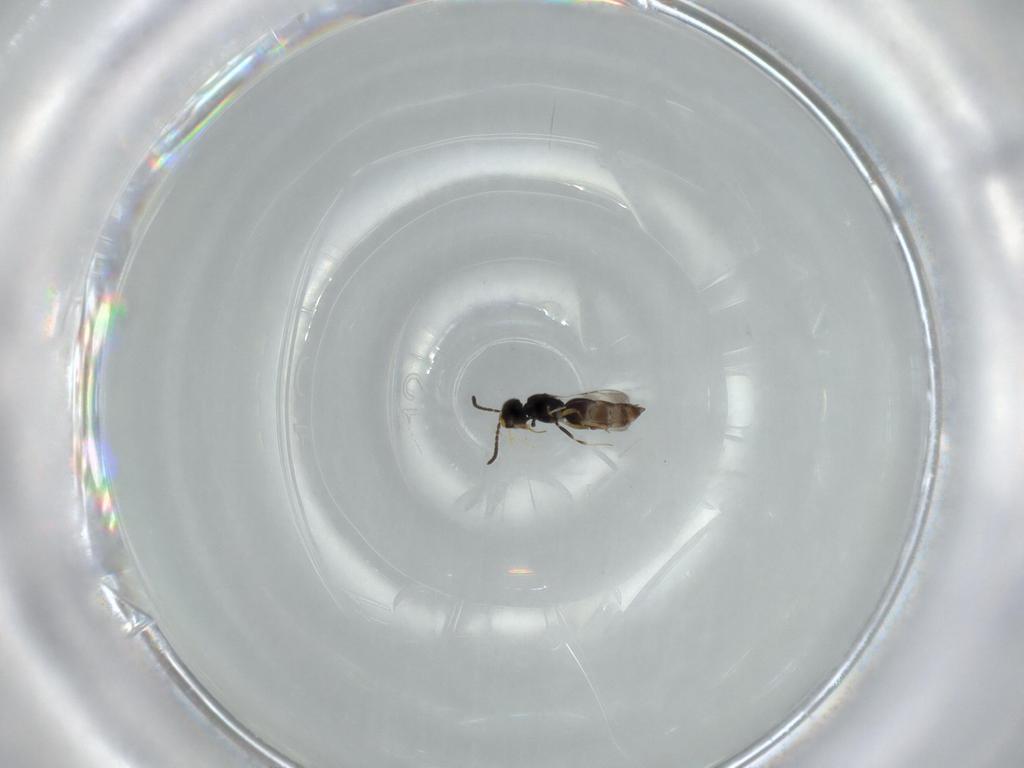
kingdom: Animalia
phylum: Arthropoda
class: Insecta
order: Hymenoptera
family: Ceraphronidae
